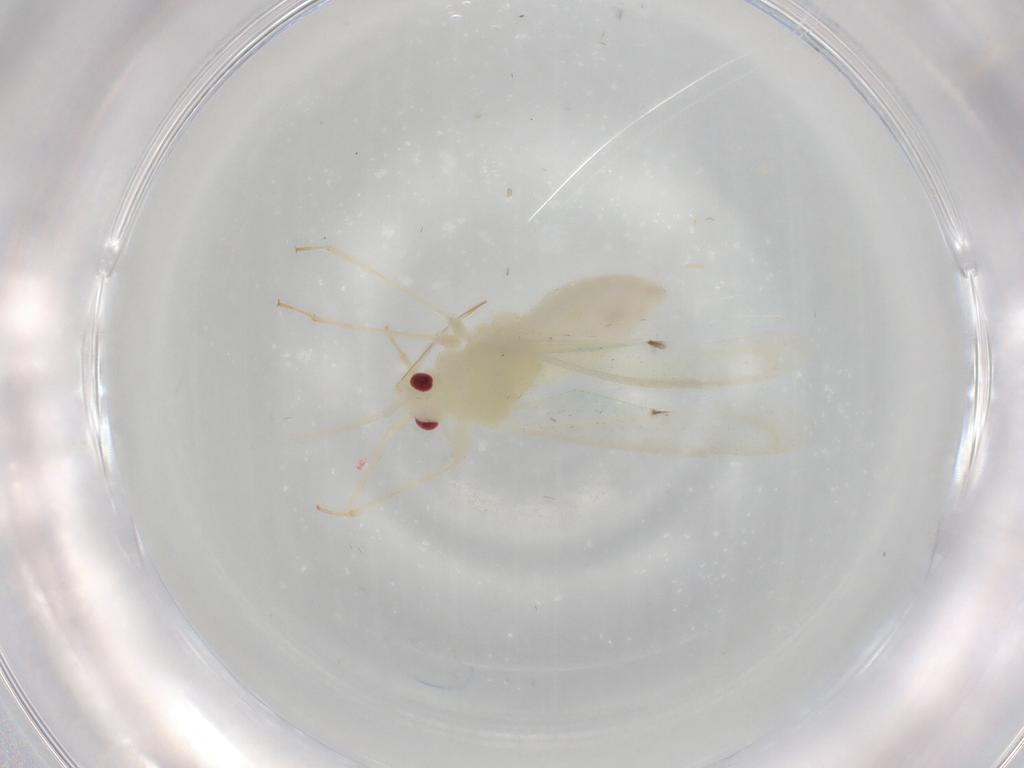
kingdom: Animalia
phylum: Arthropoda
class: Insecta
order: Hemiptera
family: Miridae
